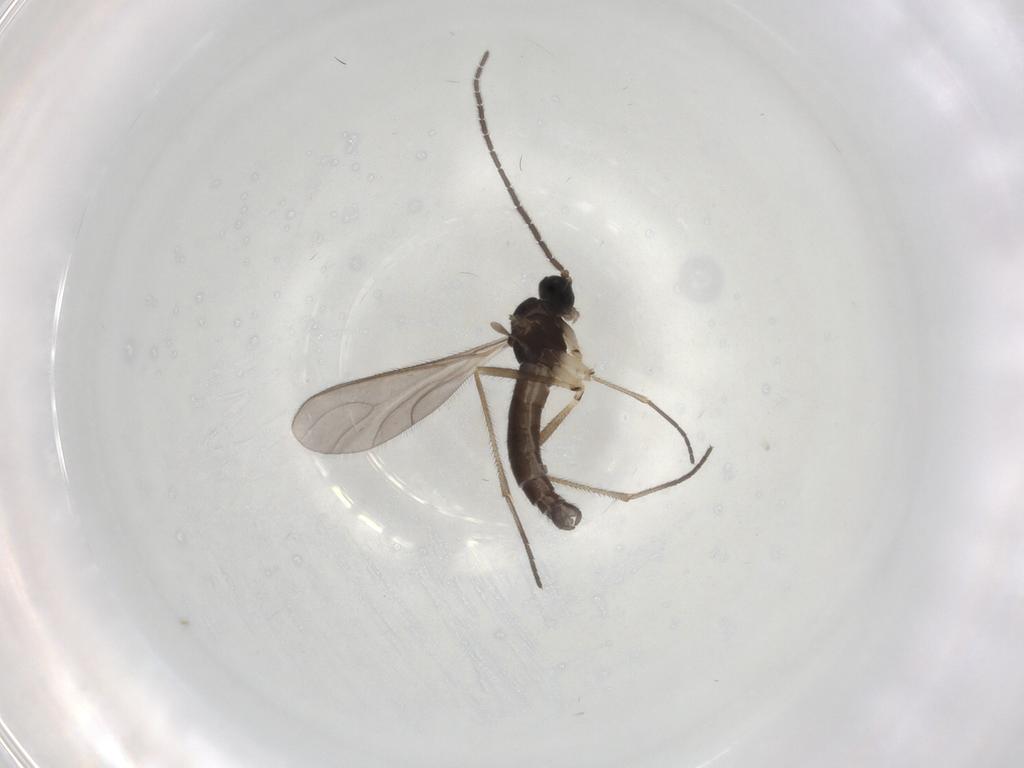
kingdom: Animalia
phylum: Arthropoda
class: Insecta
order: Diptera
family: Sciaridae
